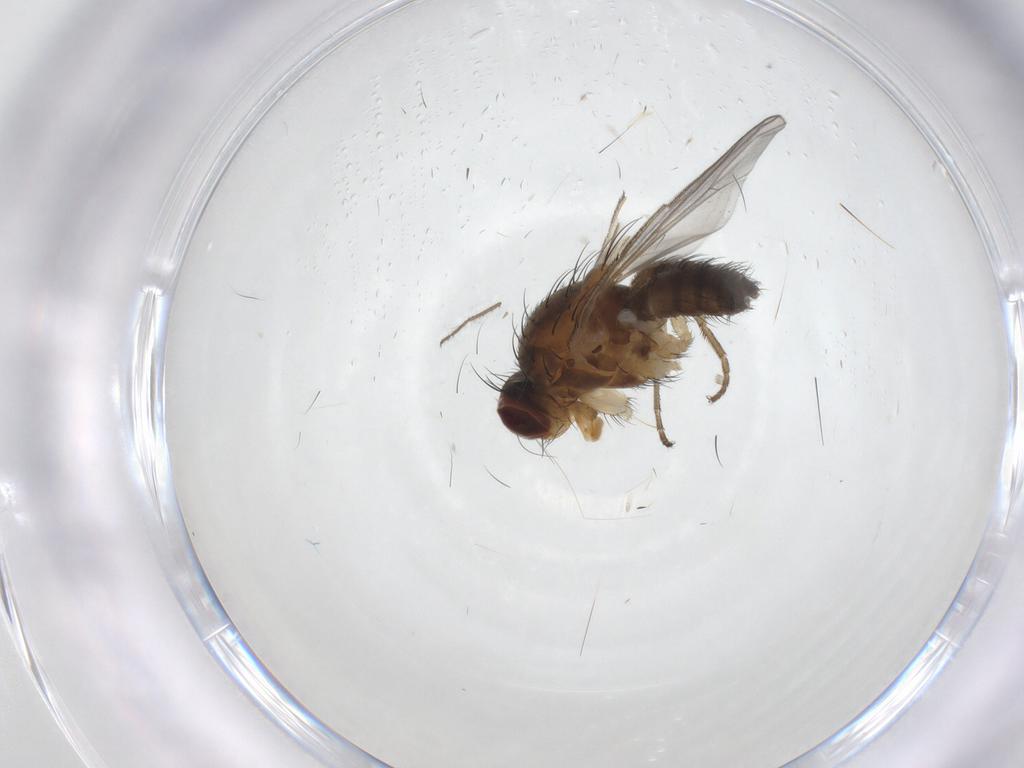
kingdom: Animalia
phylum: Arthropoda
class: Insecta
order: Diptera
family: Heleomyzidae
